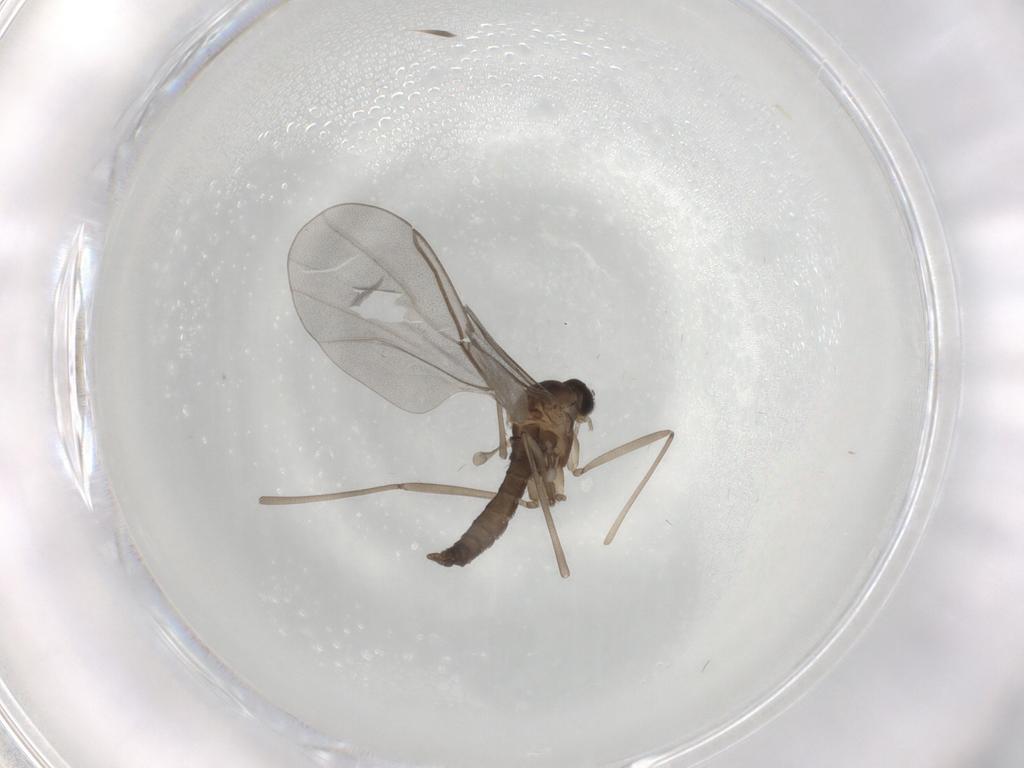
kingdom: Animalia
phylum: Arthropoda
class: Insecta
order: Diptera
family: Cecidomyiidae
